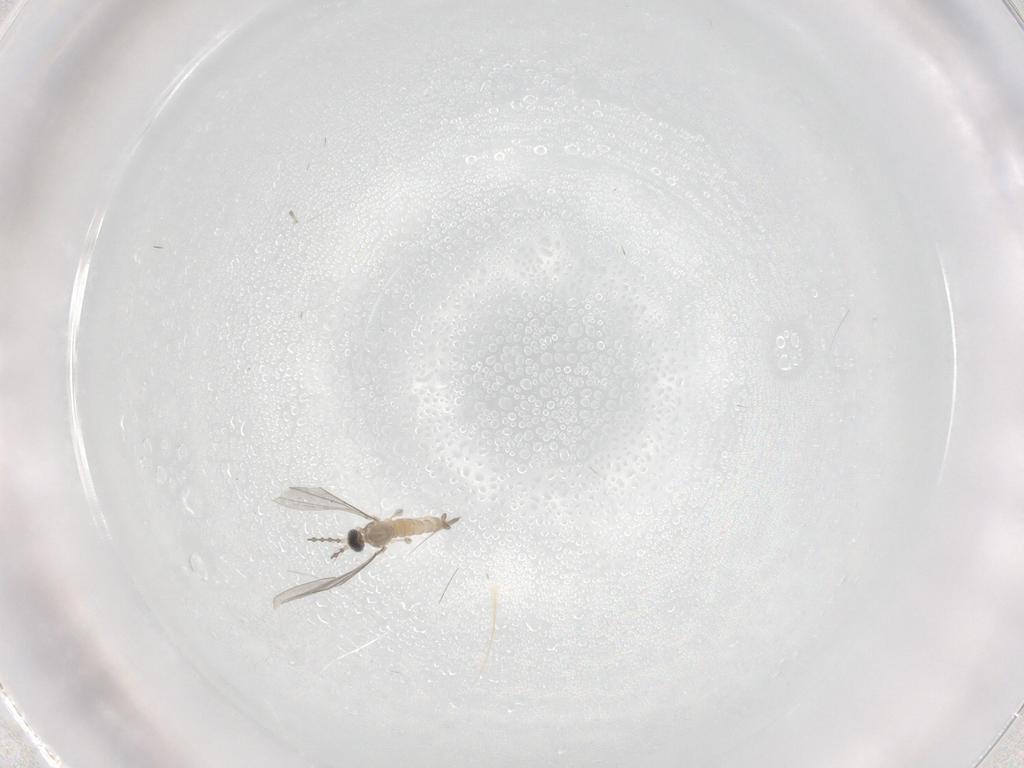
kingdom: Animalia
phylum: Arthropoda
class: Insecta
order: Diptera
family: Cecidomyiidae
